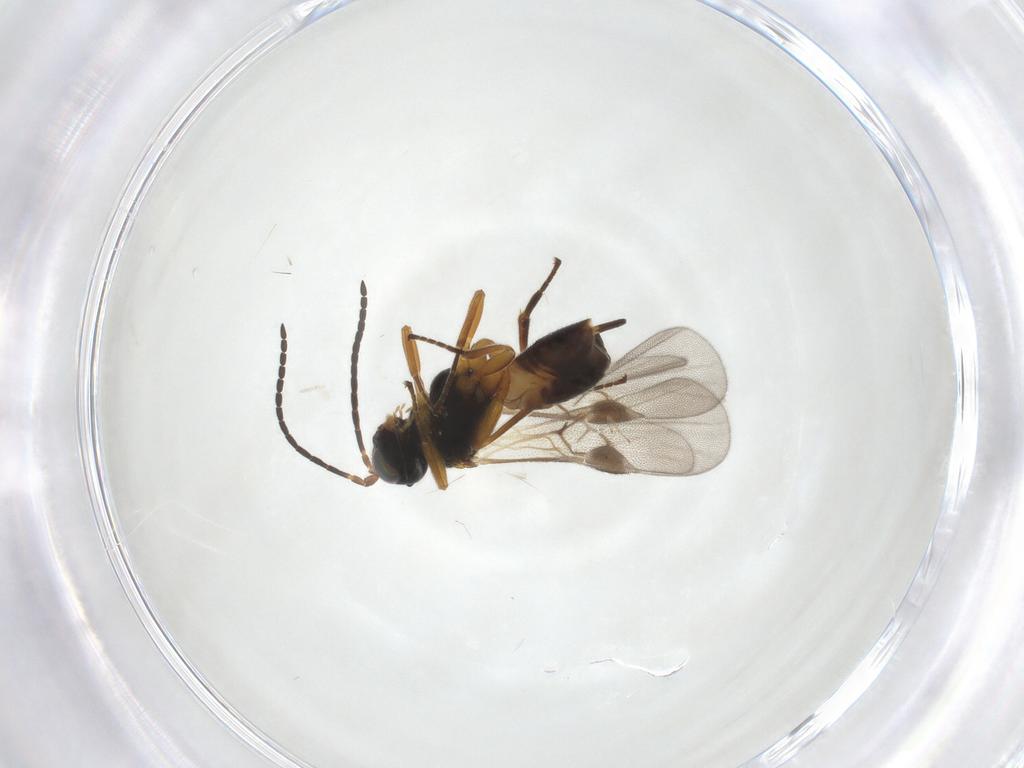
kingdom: Animalia
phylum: Arthropoda
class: Insecta
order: Hymenoptera
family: Braconidae
